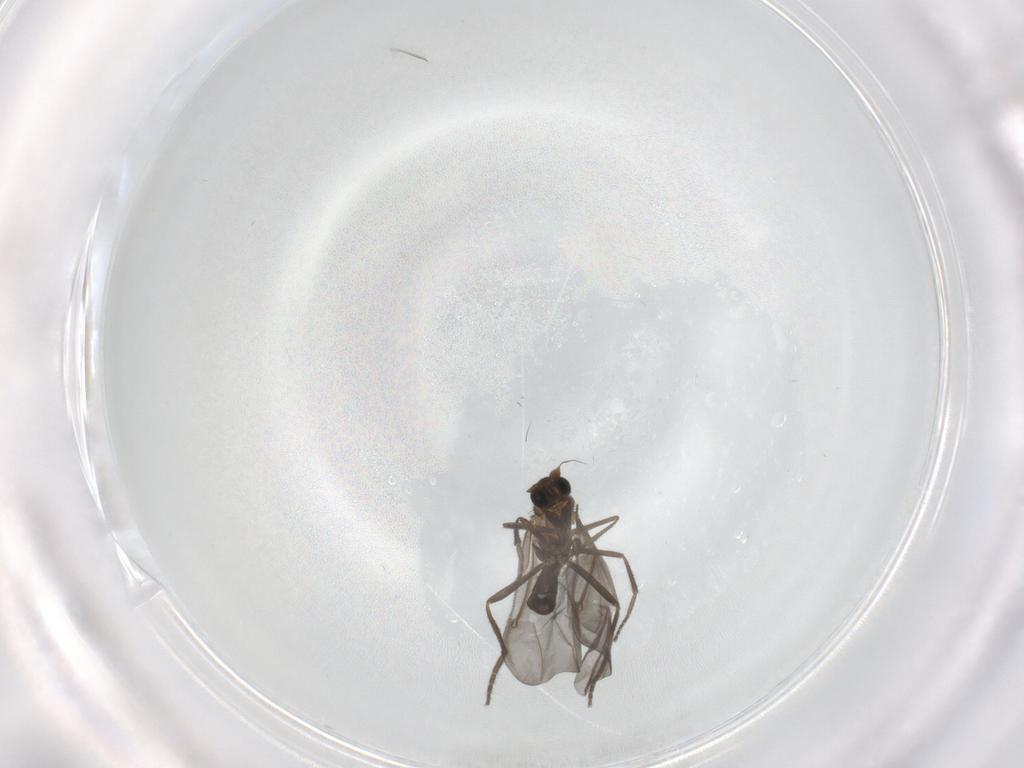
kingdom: Animalia
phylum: Arthropoda
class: Insecta
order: Diptera
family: Phoridae
